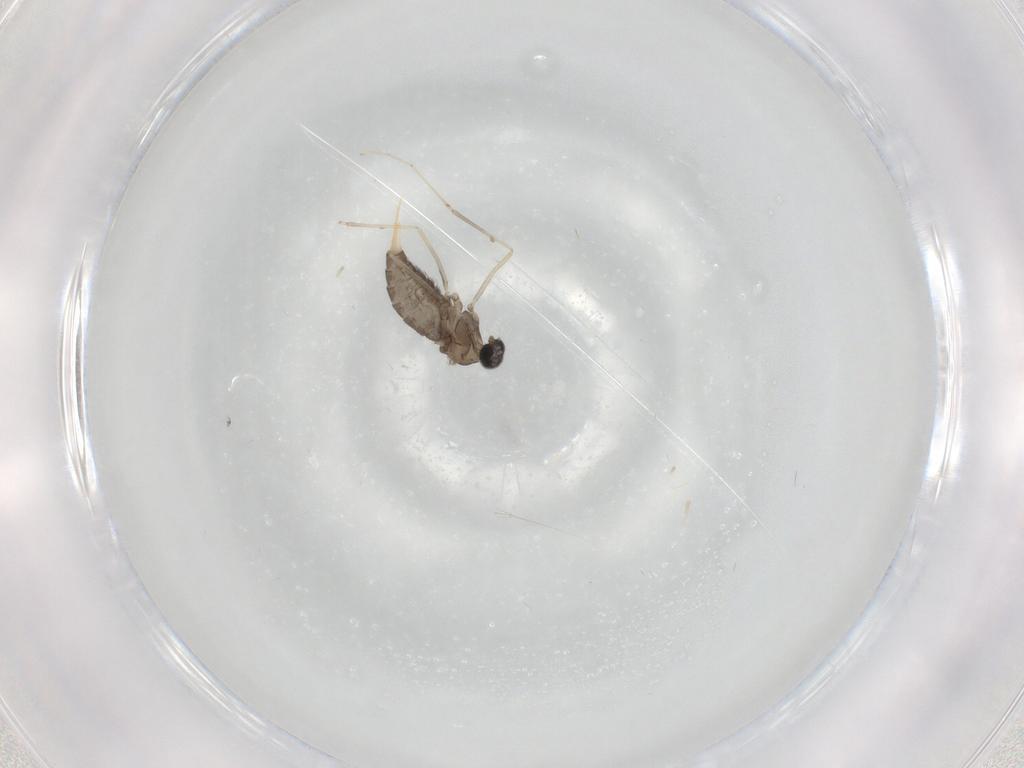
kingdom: Animalia
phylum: Arthropoda
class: Insecta
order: Diptera
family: Cecidomyiidae
